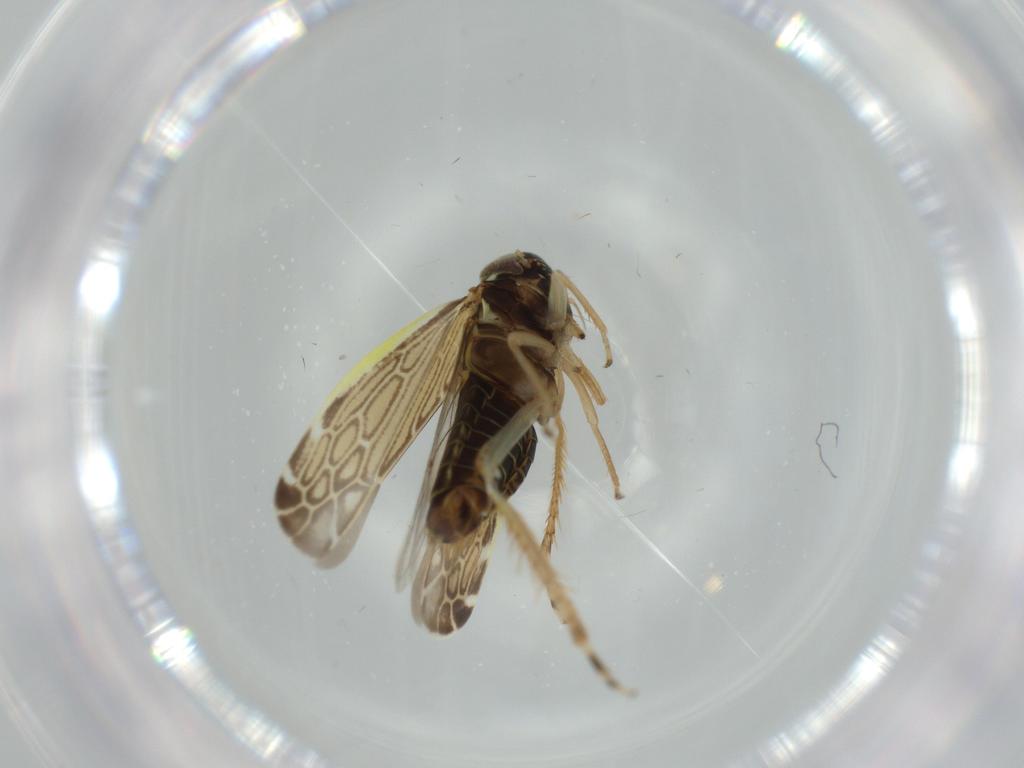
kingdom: Animalia
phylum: Arthropoda
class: Insecta
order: Hemiptera
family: Cicadellidae
